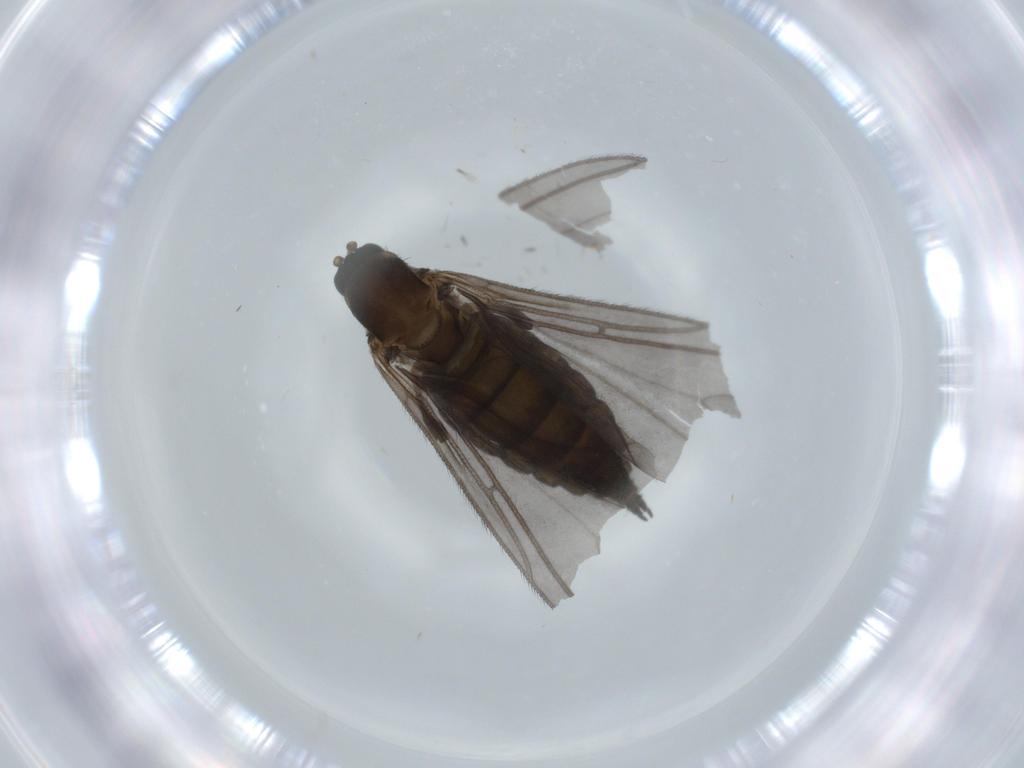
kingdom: Animalia
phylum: Arthropoda
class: Insecta
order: Diptera
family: Sciaridae
